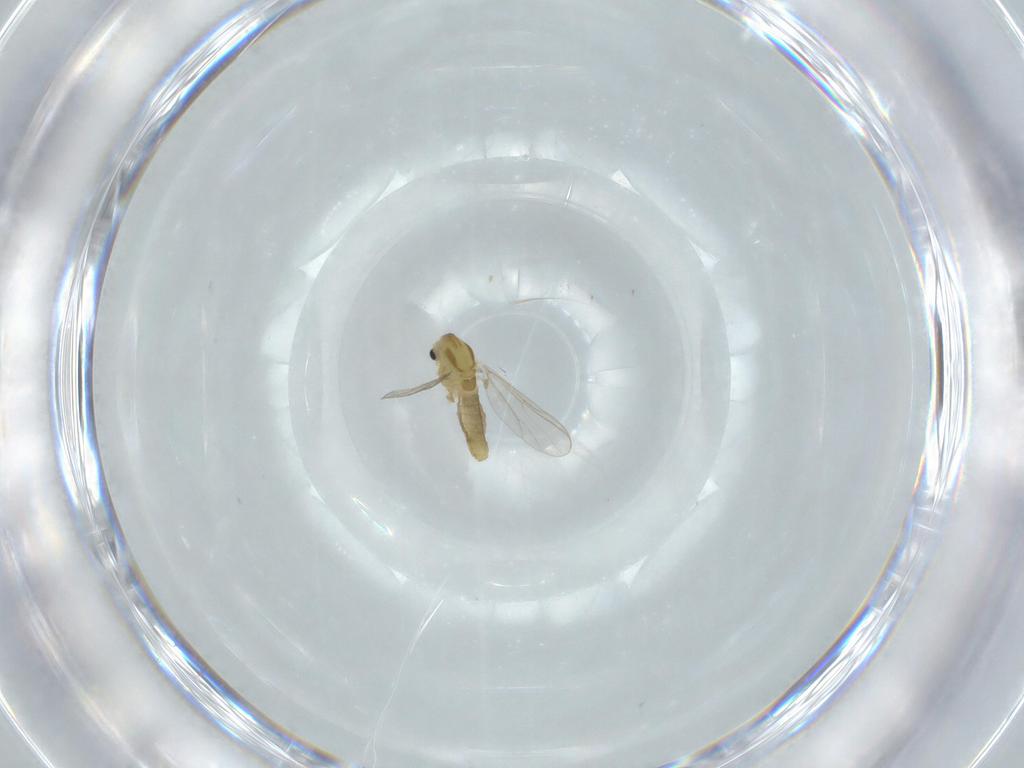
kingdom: Animalia
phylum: Arthropoda
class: Insecta
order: Diptera
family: Chironomidae
